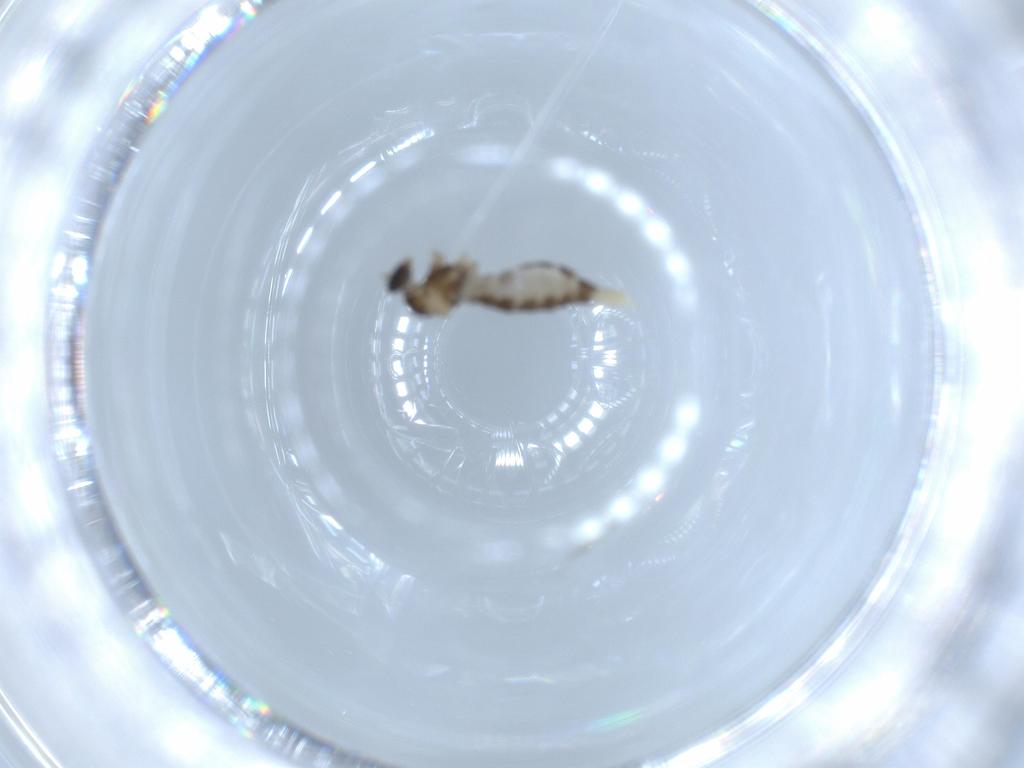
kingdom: Animalia
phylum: Arthropoda
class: Insecta
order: Diptera
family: Cecidomyiidae
